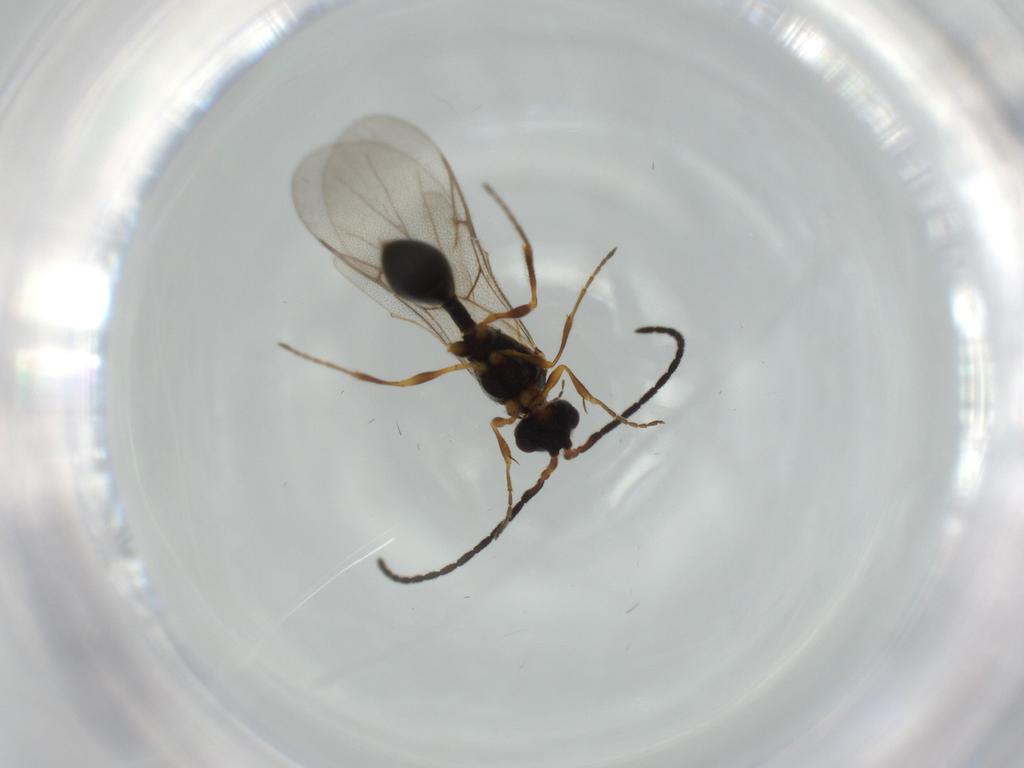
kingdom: Animalia
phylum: Arthropoda
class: Insecta
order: Hymenoptera
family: Diapriidae
